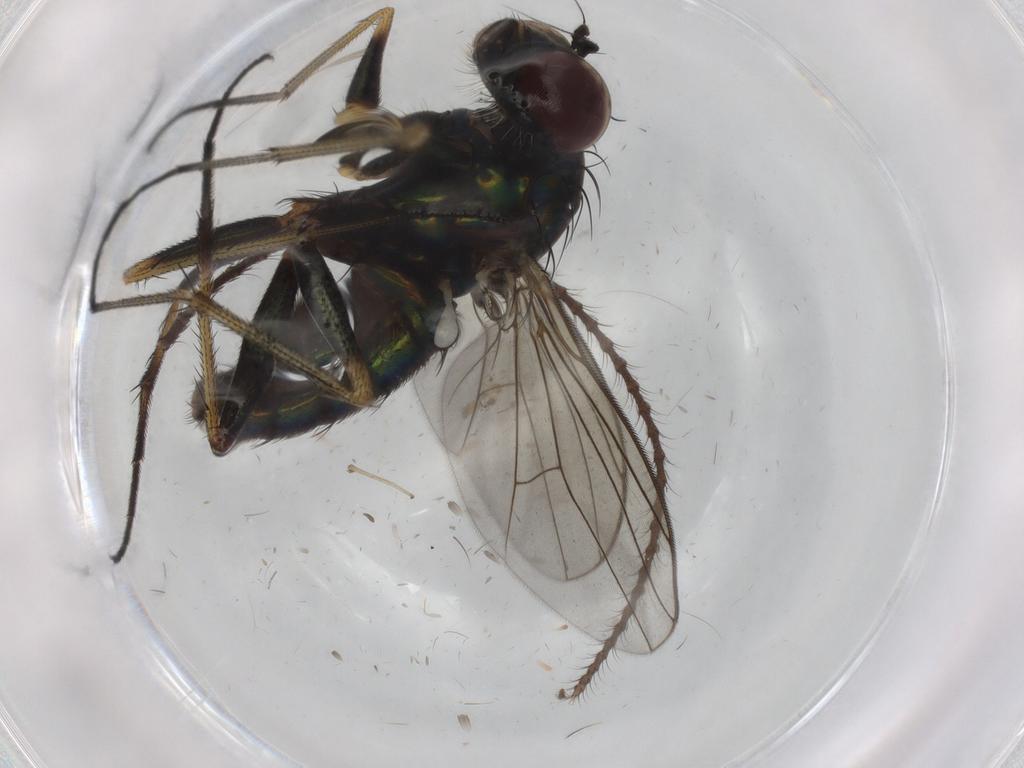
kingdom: Animalia
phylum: Arthropoda
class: Insecta
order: Diptera
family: Dolichopodidae
